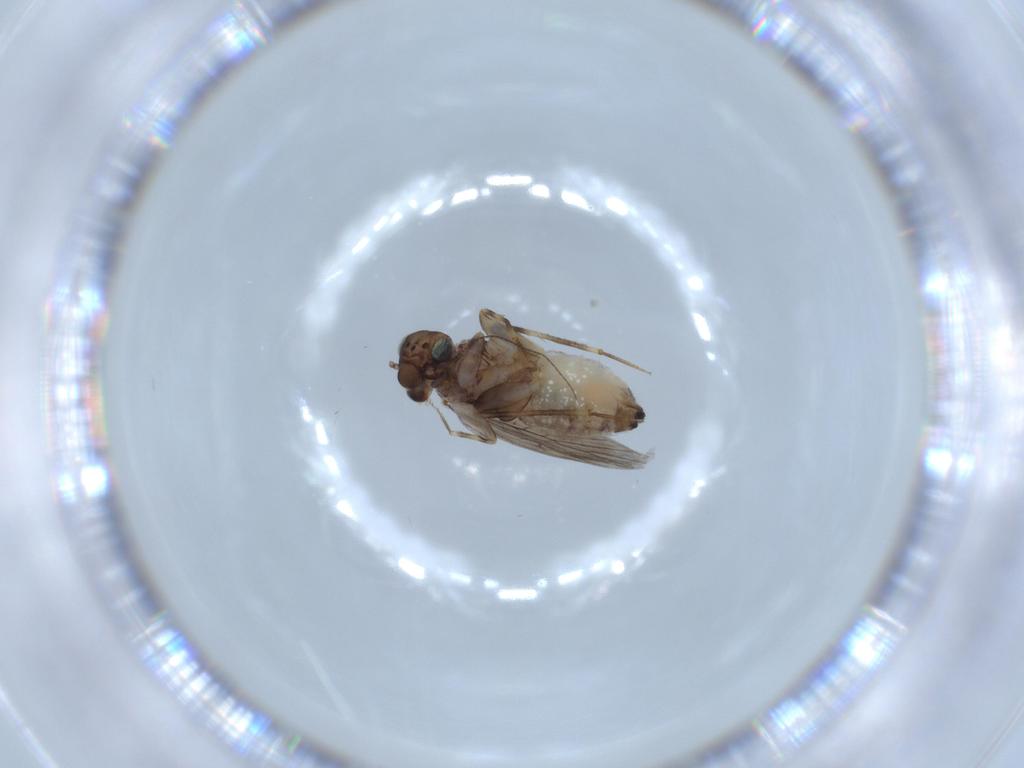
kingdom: Animalia
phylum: Arthropoda
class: Insecta
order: Psocodea
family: Lepidopsocidae
